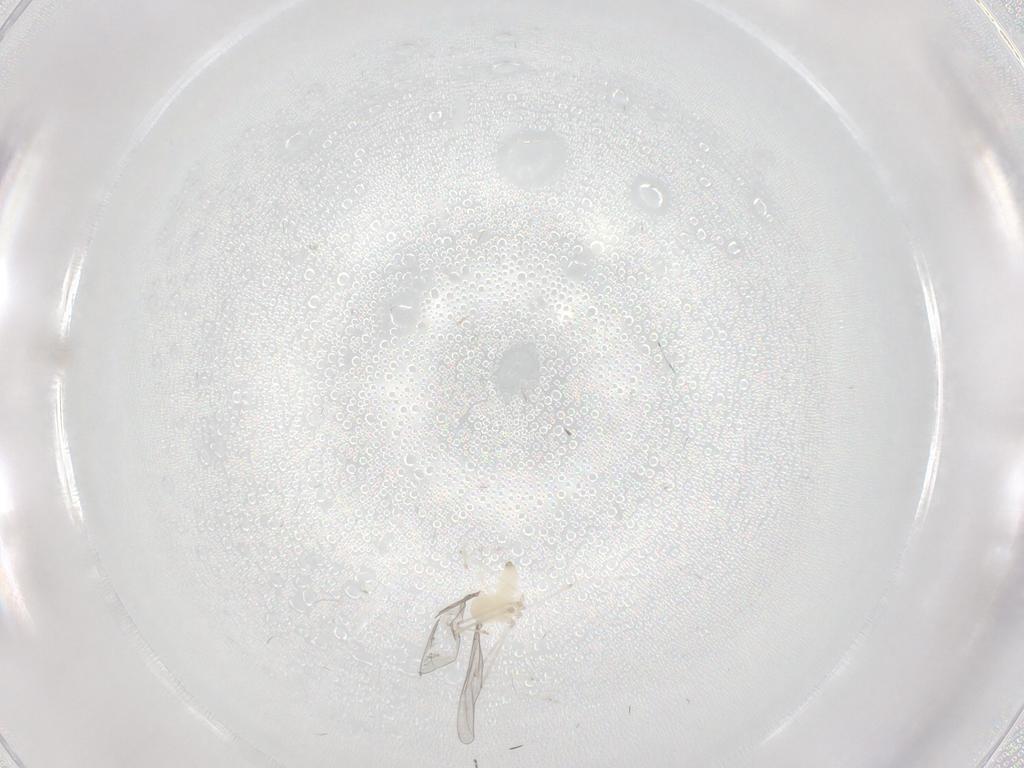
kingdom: Animalia
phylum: Arthropoda
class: Insecta
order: Diptera
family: Cecidomyiidae
